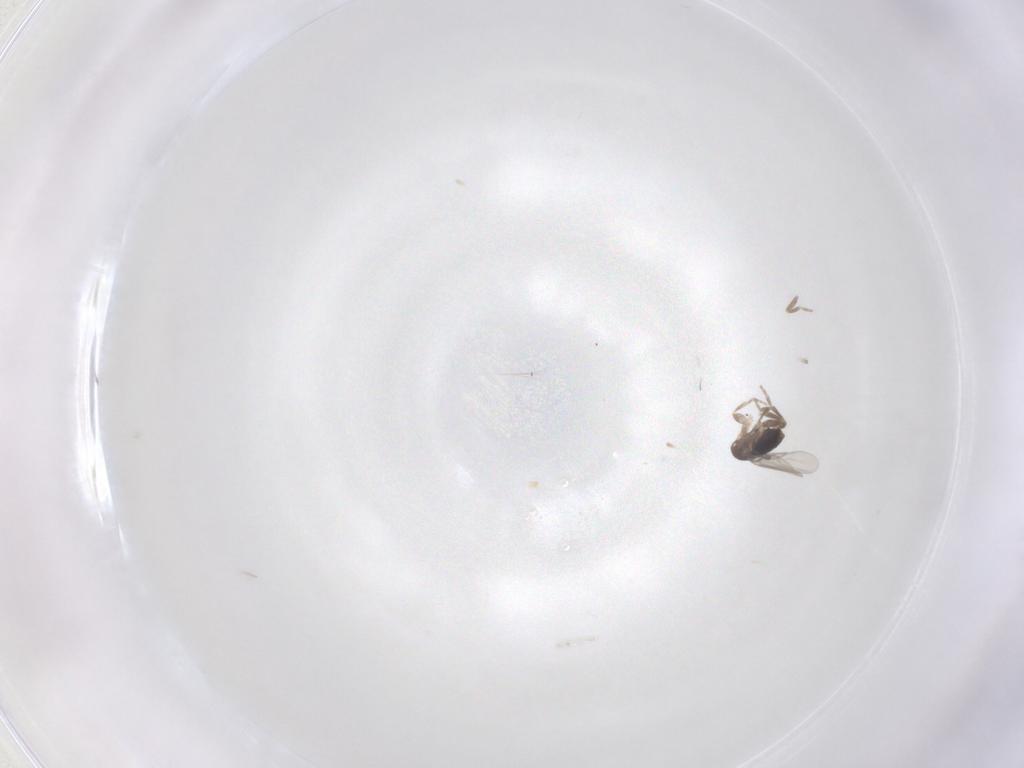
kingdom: Animalia
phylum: Arthropoda
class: Insecta
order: Diptera
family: Phoridae
